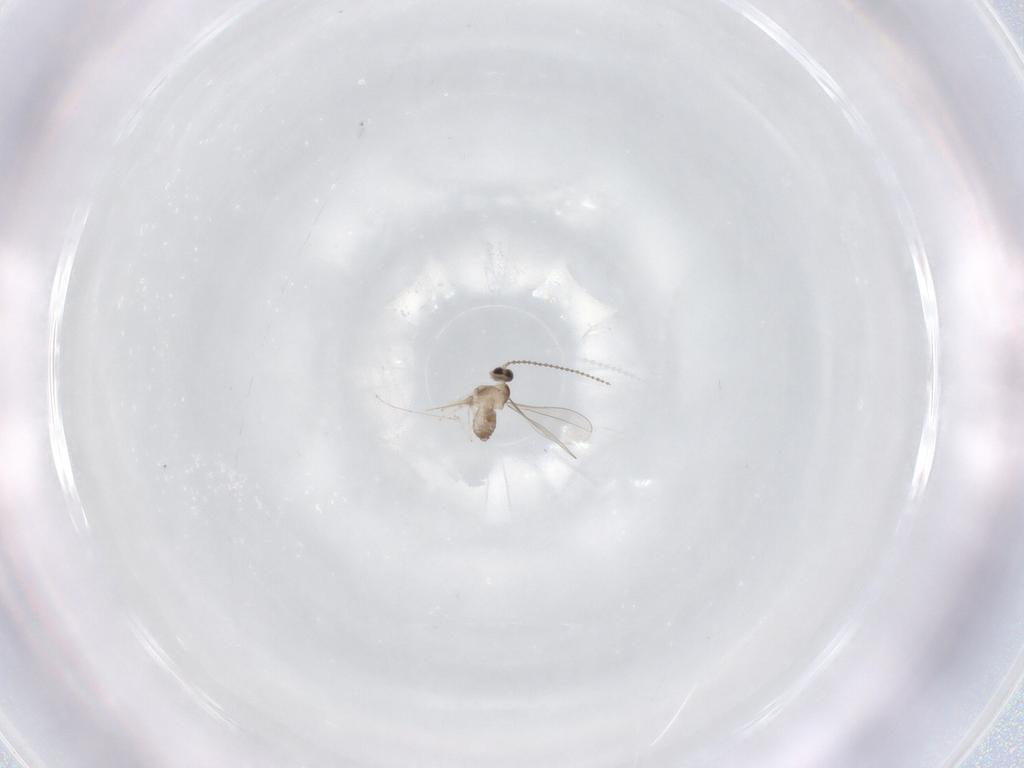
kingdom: Animalia
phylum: Arthropoda
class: Insecta
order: Diptera
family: Cecidomyiidae
